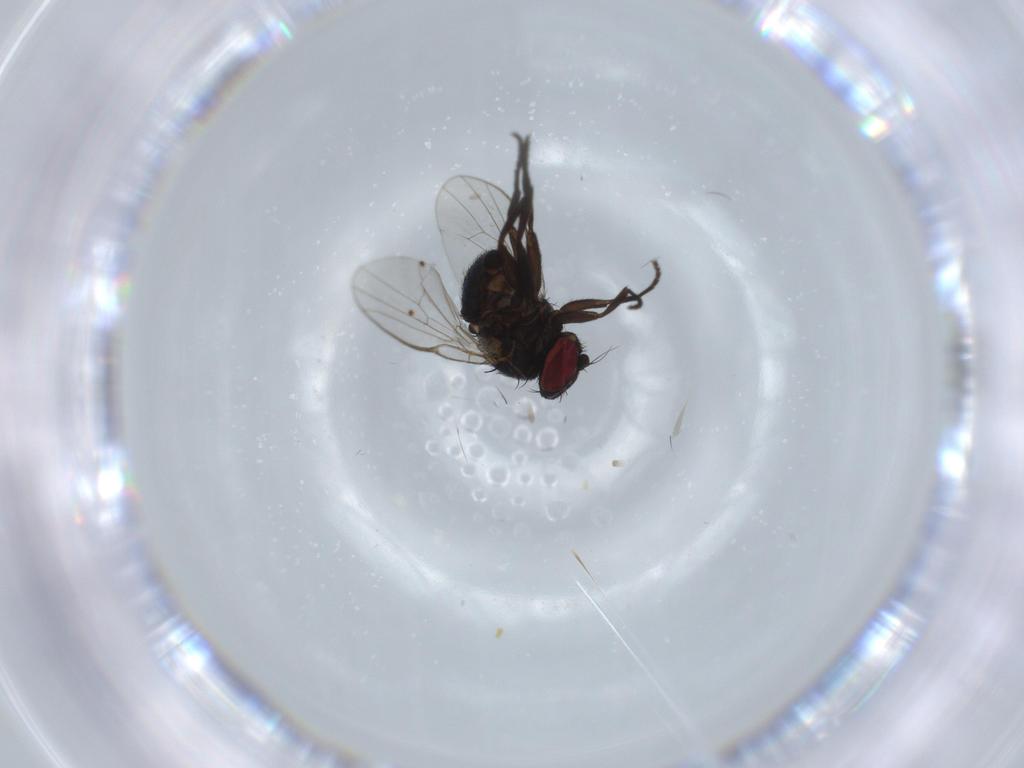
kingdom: Animalia
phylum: Arthropoda
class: Insecta
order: Diptera
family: Agromyzidae
